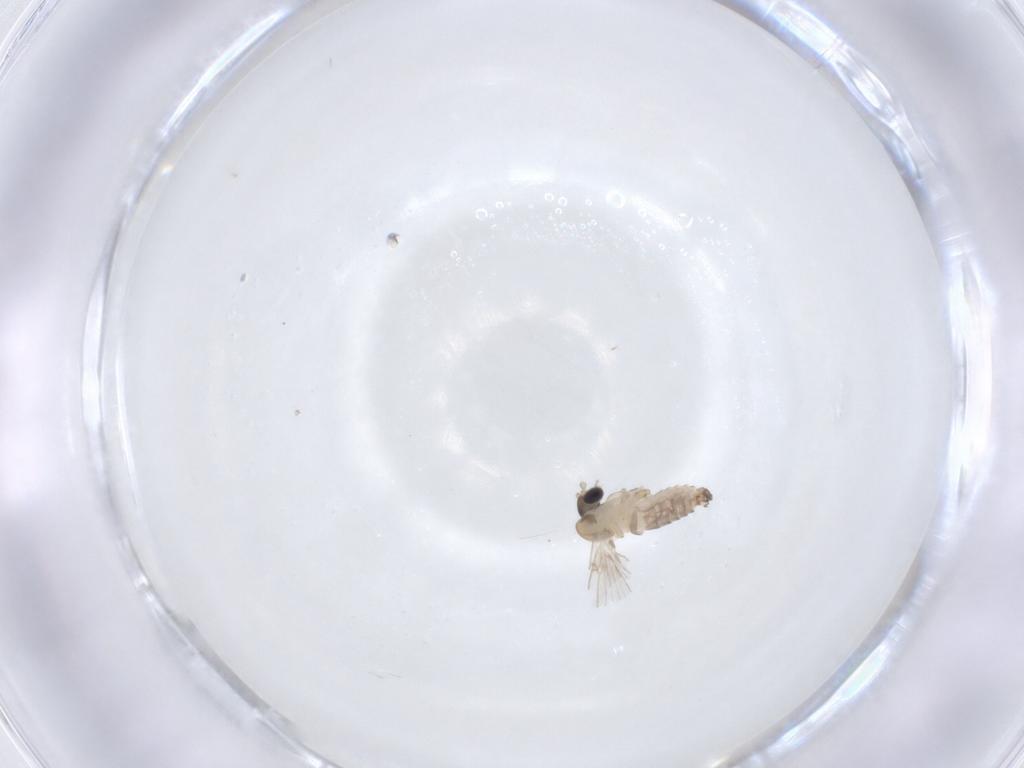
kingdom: Animalia
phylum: Arthropoda
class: Insecta
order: Diptera
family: Psychodidae
